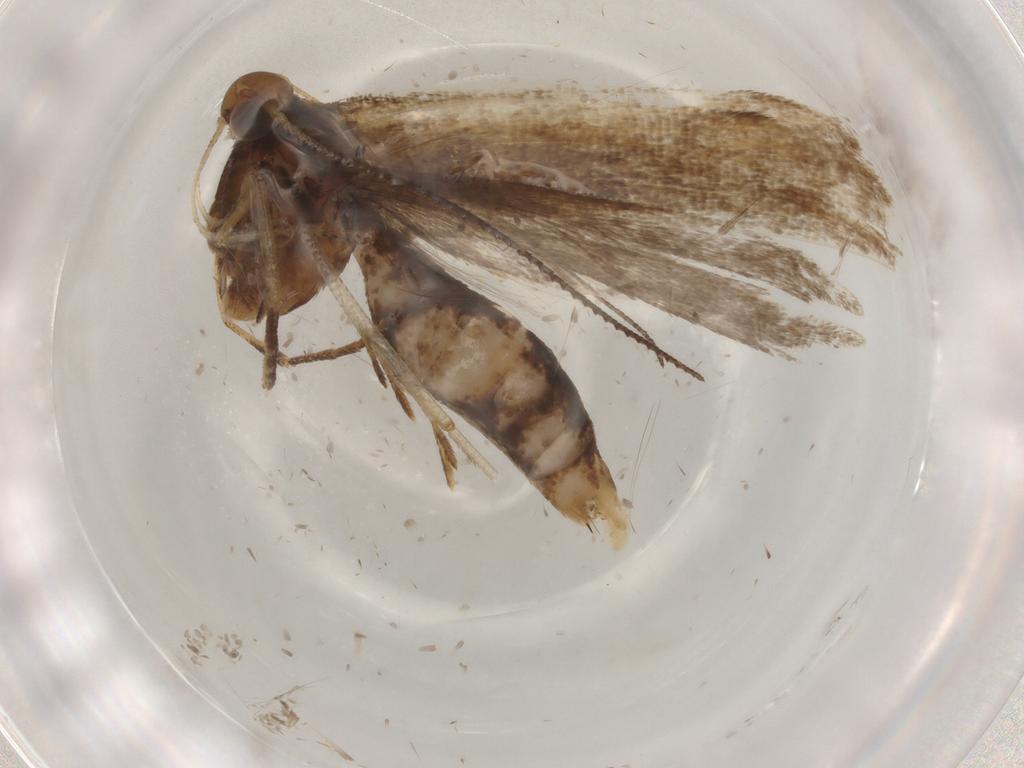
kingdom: Animalia
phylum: Arthropoda
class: Insecta
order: Lepidoptera
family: Gelechiidae
